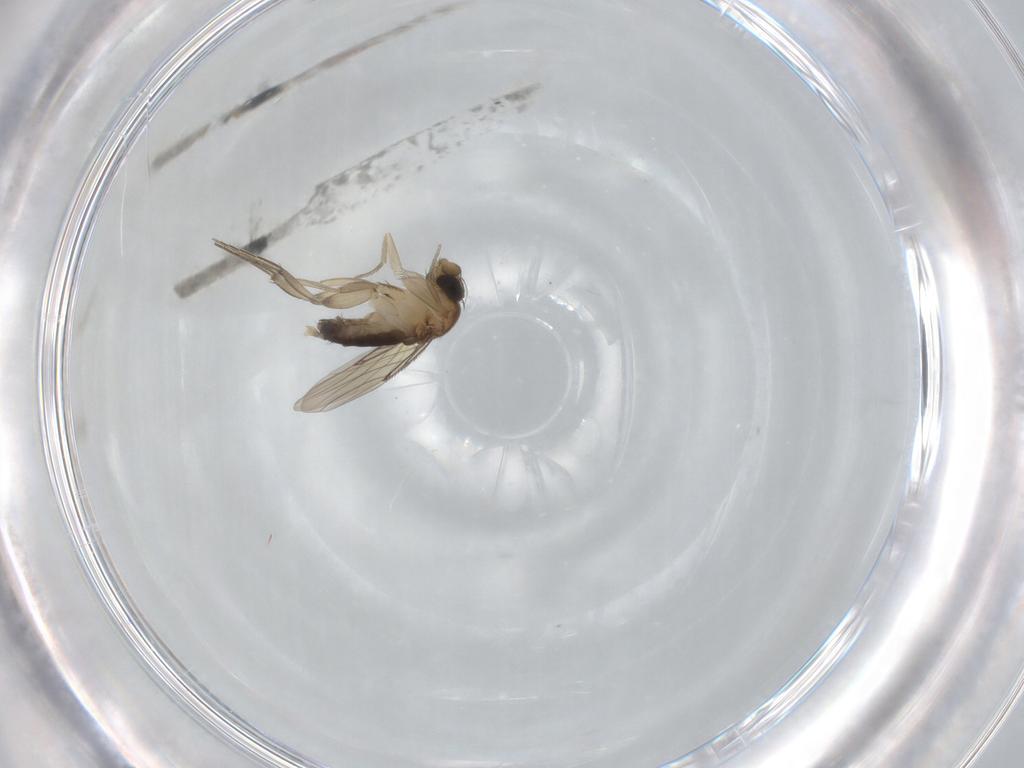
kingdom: Animalia
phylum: Arthropoda
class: Insecta
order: Diptera
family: Phoridae
